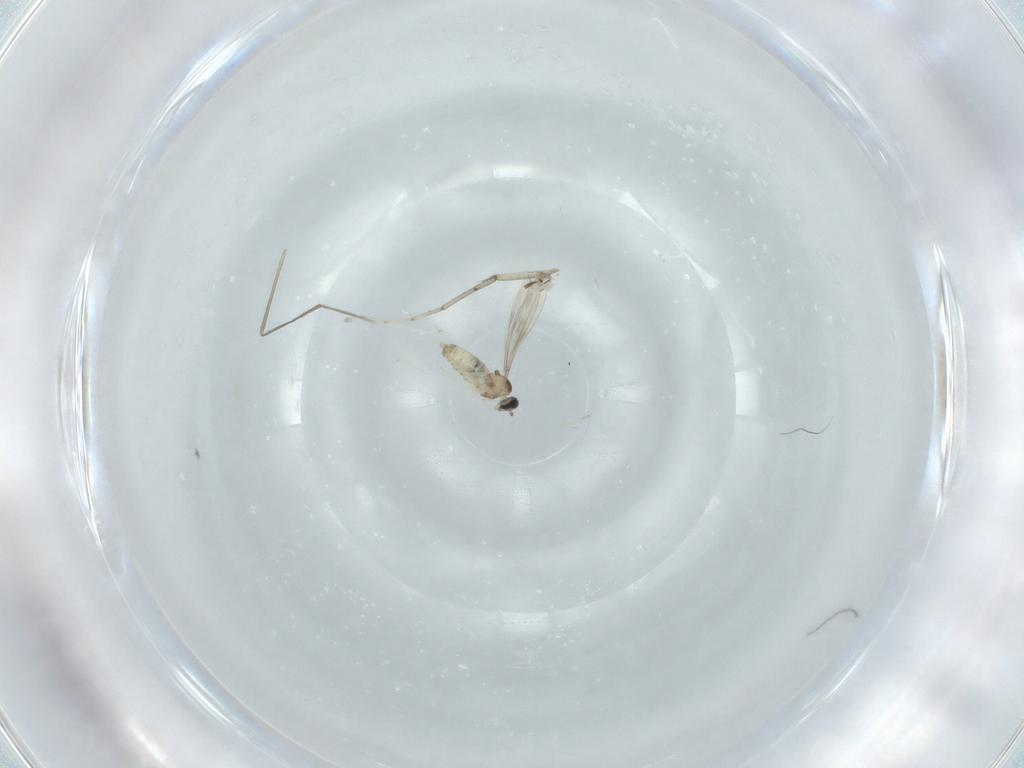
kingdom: Animalia
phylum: Arthropoda
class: Insecta
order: Diptera
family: Cecidomyiidae
